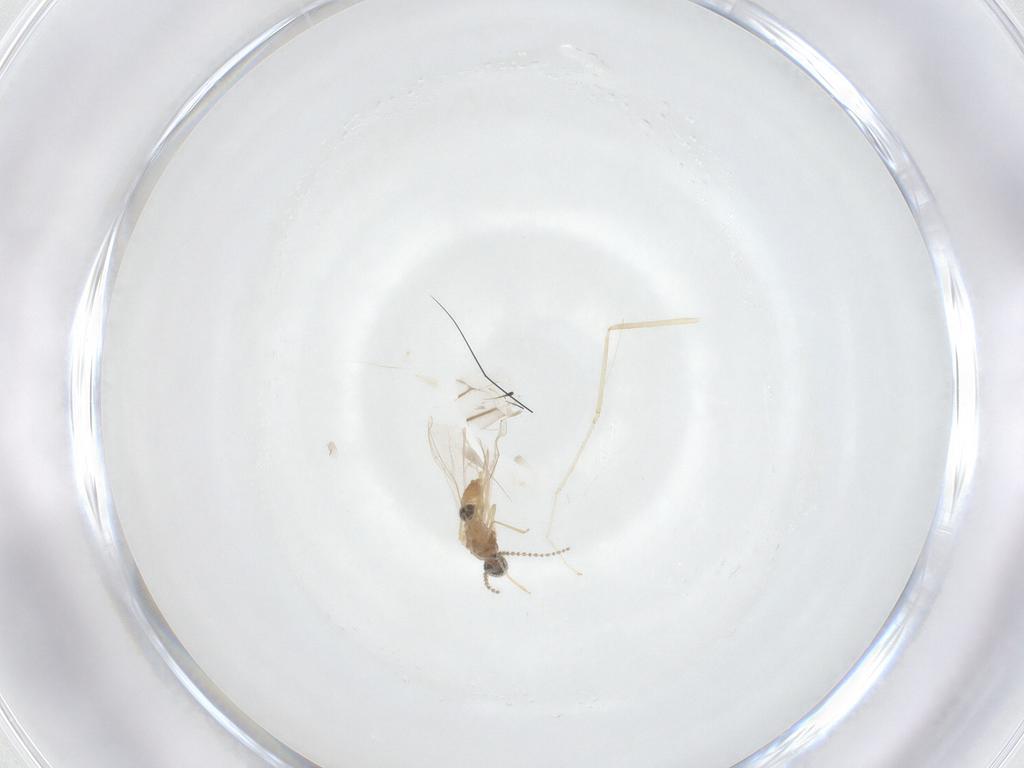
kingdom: Animalia
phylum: Arthropoda
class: Insecta
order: Diptera
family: Cecidomyiidae
